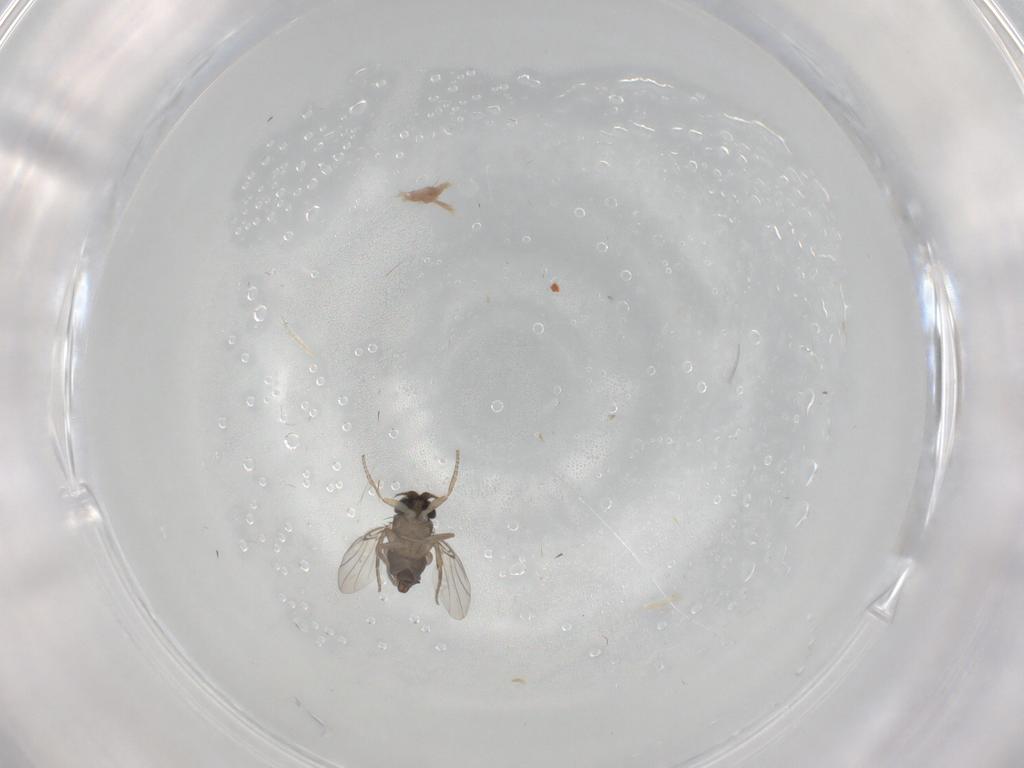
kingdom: Animalia
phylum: Arthropoda
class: Insecta
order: Diptera
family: Phoridae
